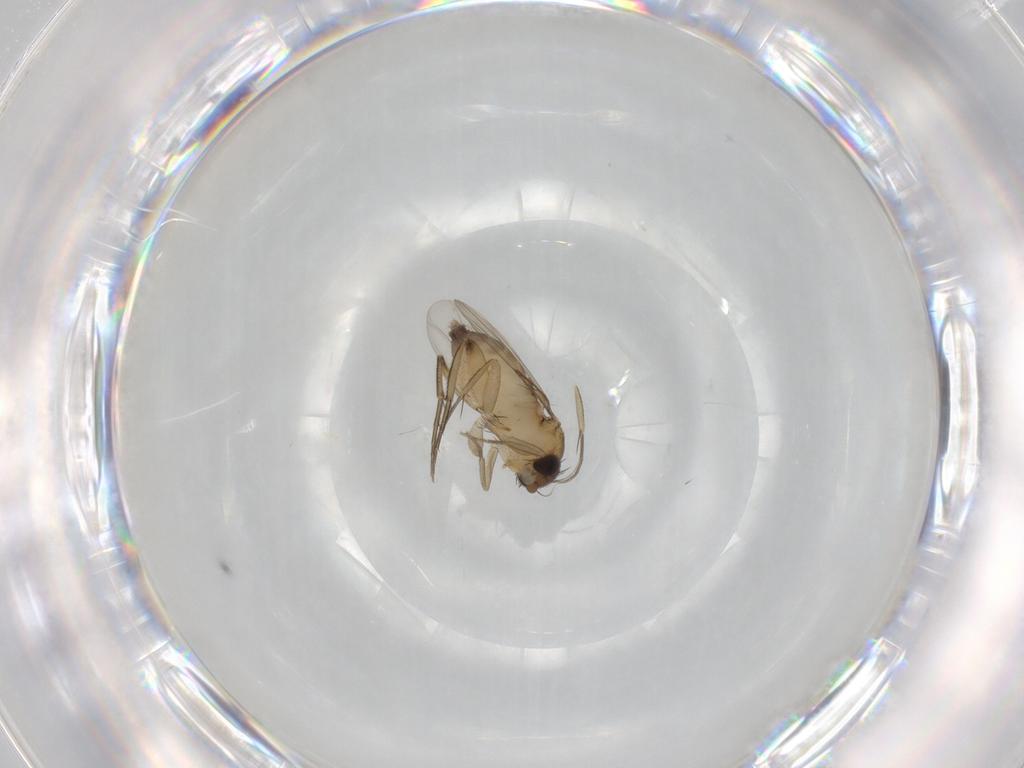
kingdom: Animalia
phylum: Arthropoda
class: Insecta
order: Diptera
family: Phoridae
